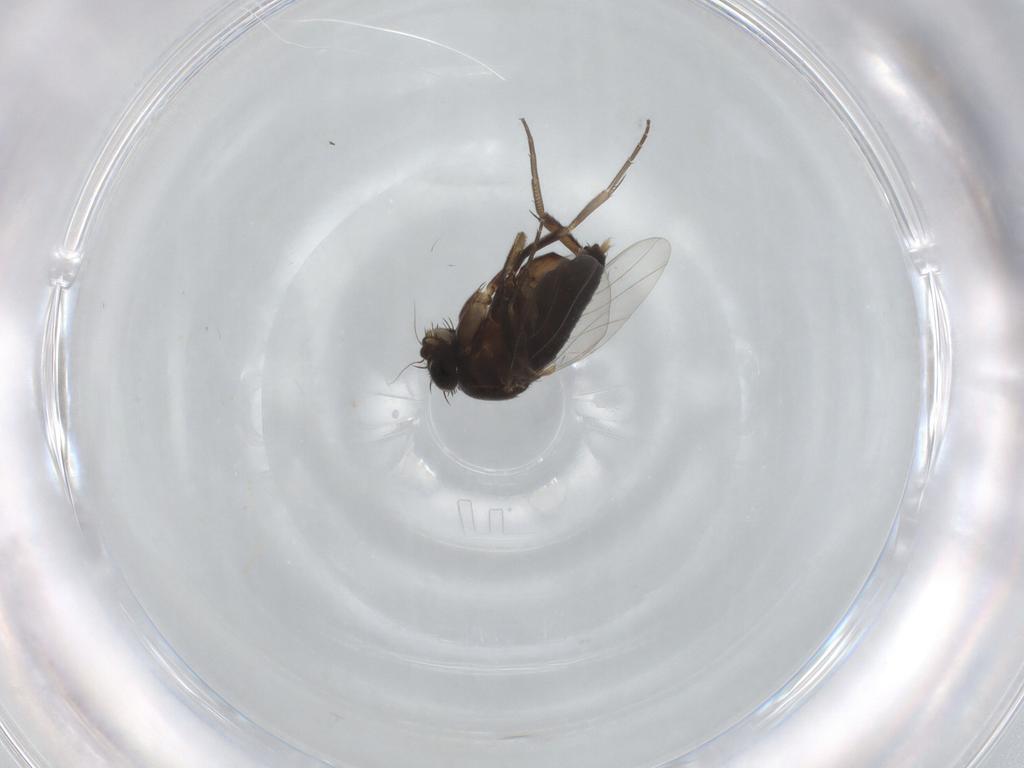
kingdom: Animalia
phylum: Arthropoda
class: Insecta
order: Diptera
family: Cecidomyiidae
